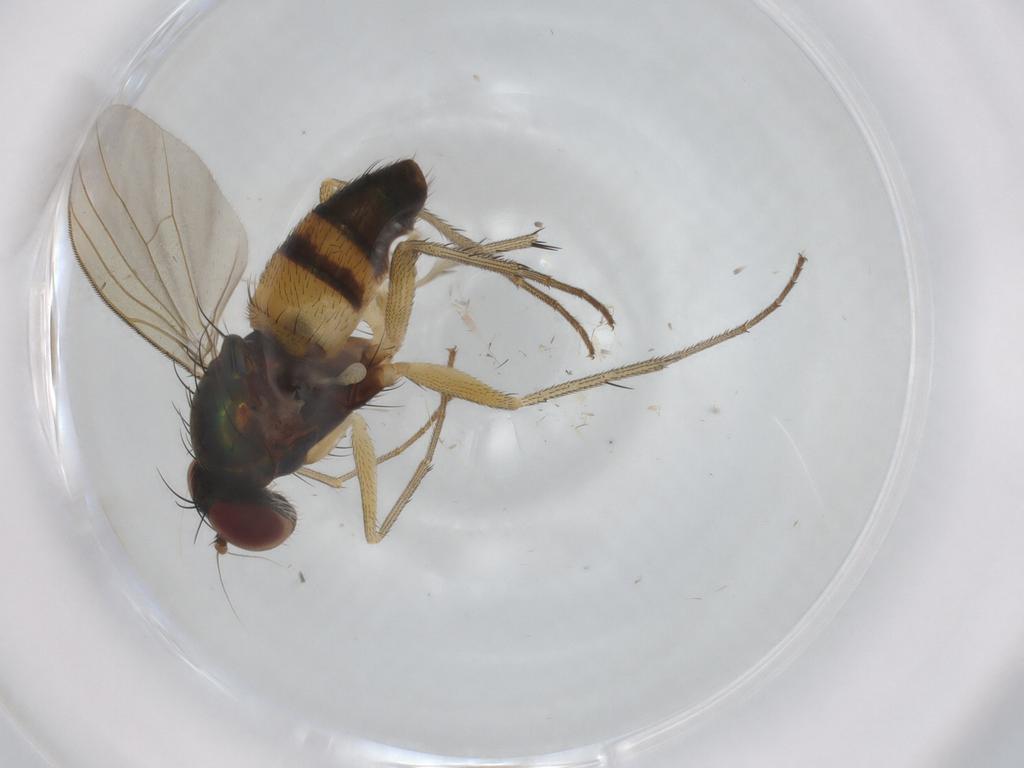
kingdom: Animalia
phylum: Arthropoda
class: Insecta
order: Diptera
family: Dolichopodidae
